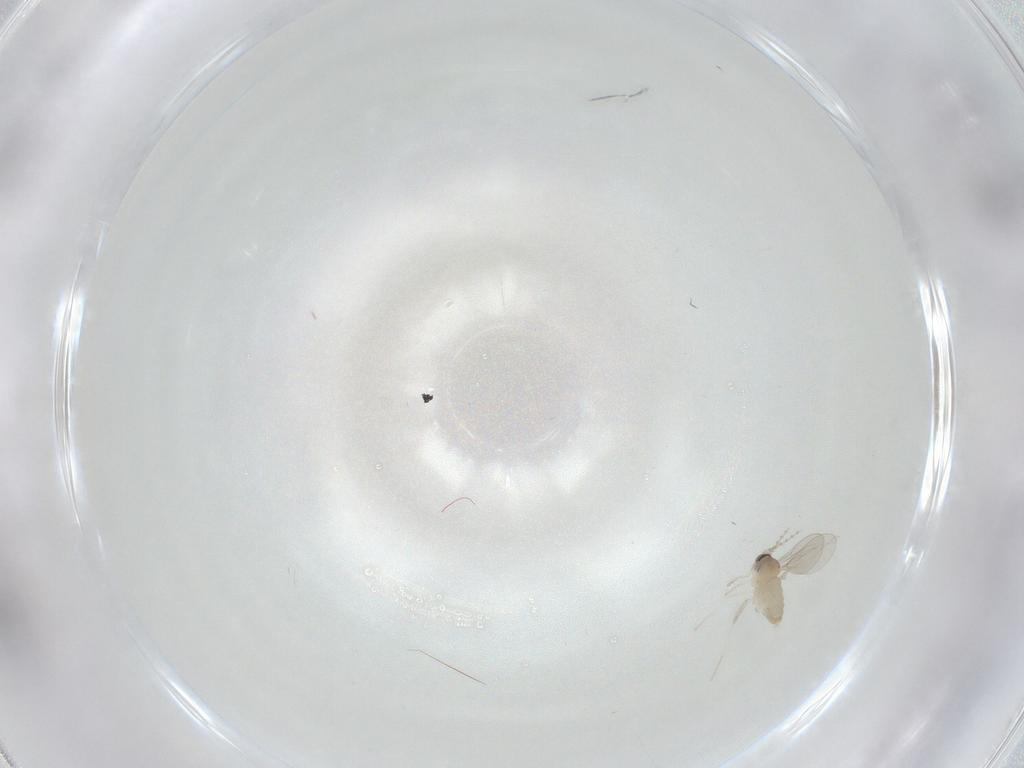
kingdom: Animalia
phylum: Arthropoda
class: Insecta
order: Diptera
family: Cecidomyiidae
